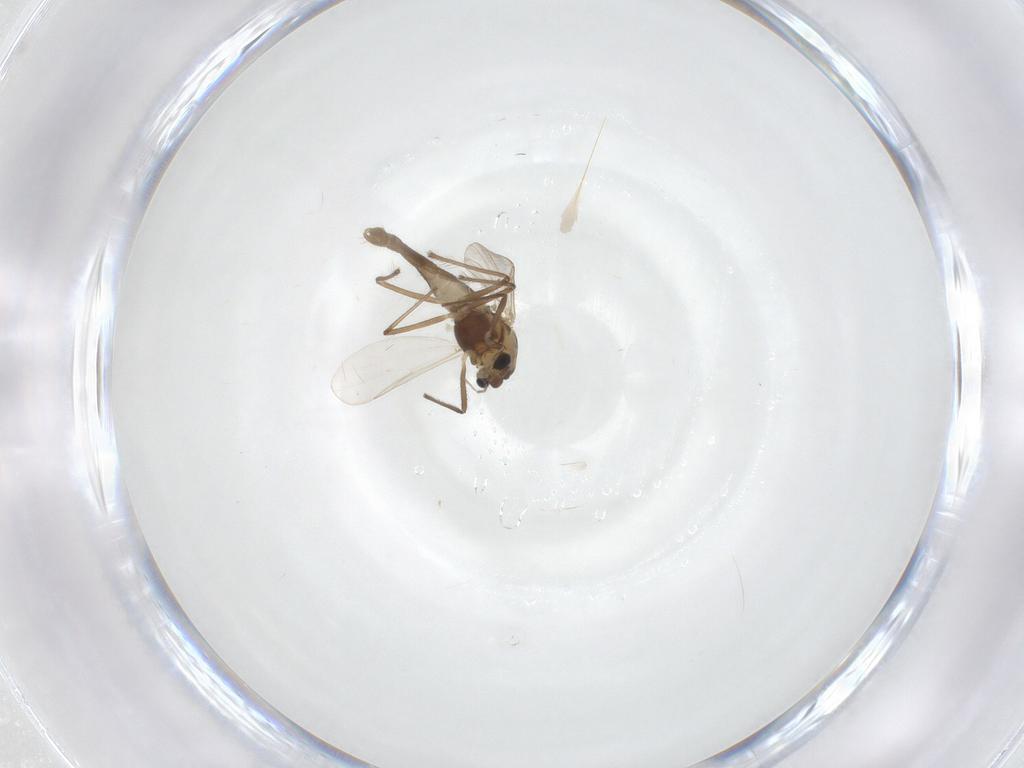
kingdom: Animalia
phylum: Arthropoda
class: Insecta
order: Diptera
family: Chironomidae
